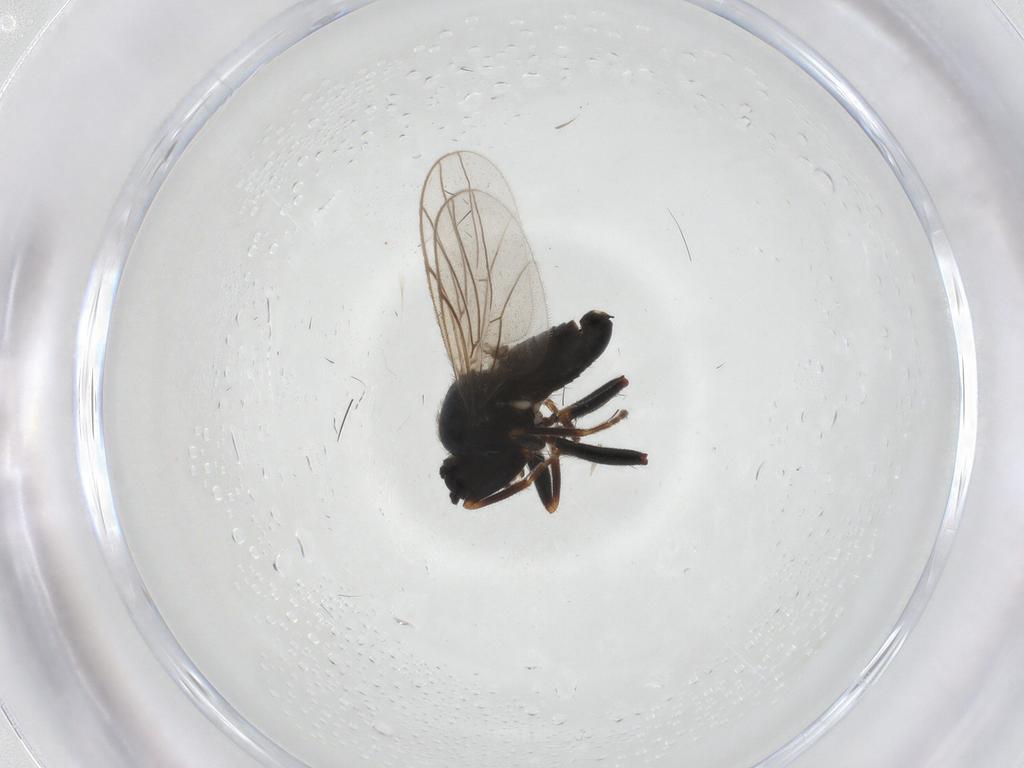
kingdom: Animalia
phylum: Arthropoda
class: Insecta
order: Diptera
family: Hybotidae
